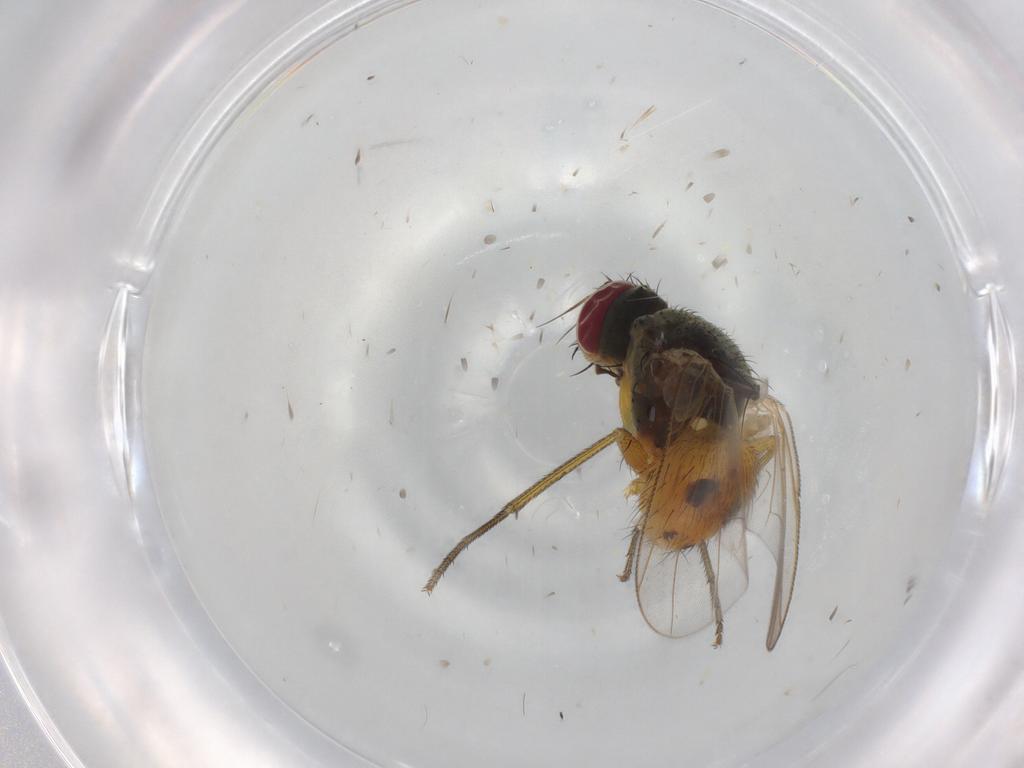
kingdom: Animalia
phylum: Arthropoda
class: Insecta
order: Diptera
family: Muscidae
